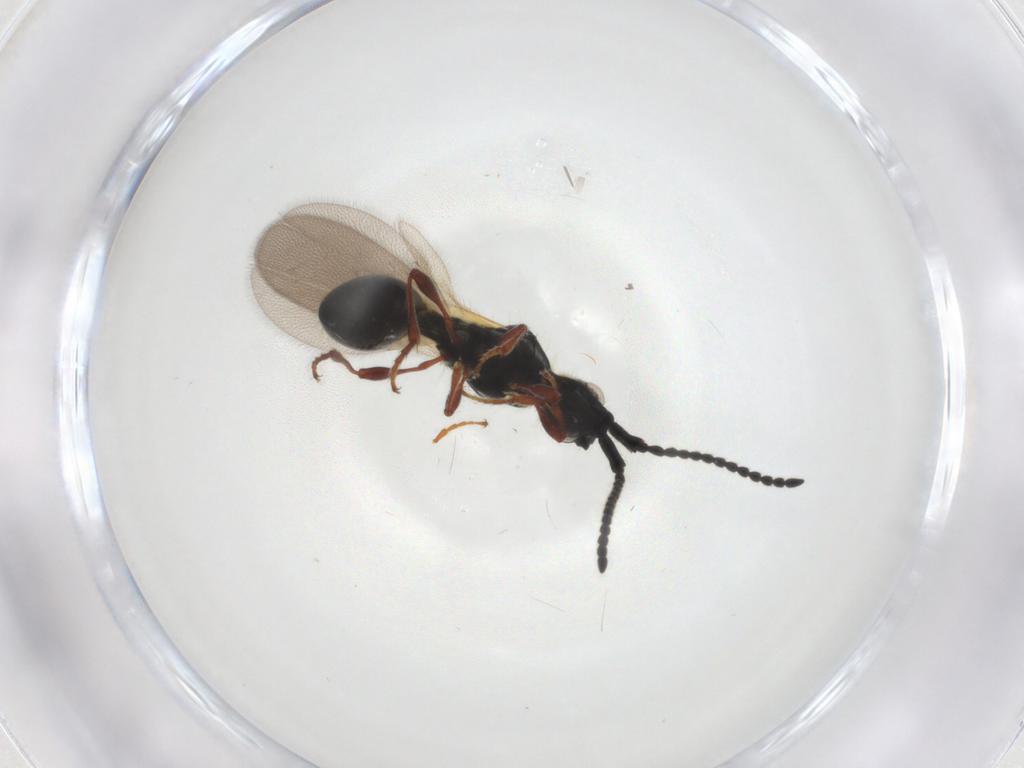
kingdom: Animalia
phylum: Arthropoda
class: Insecta
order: Hymenoptera
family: Diapriidae
